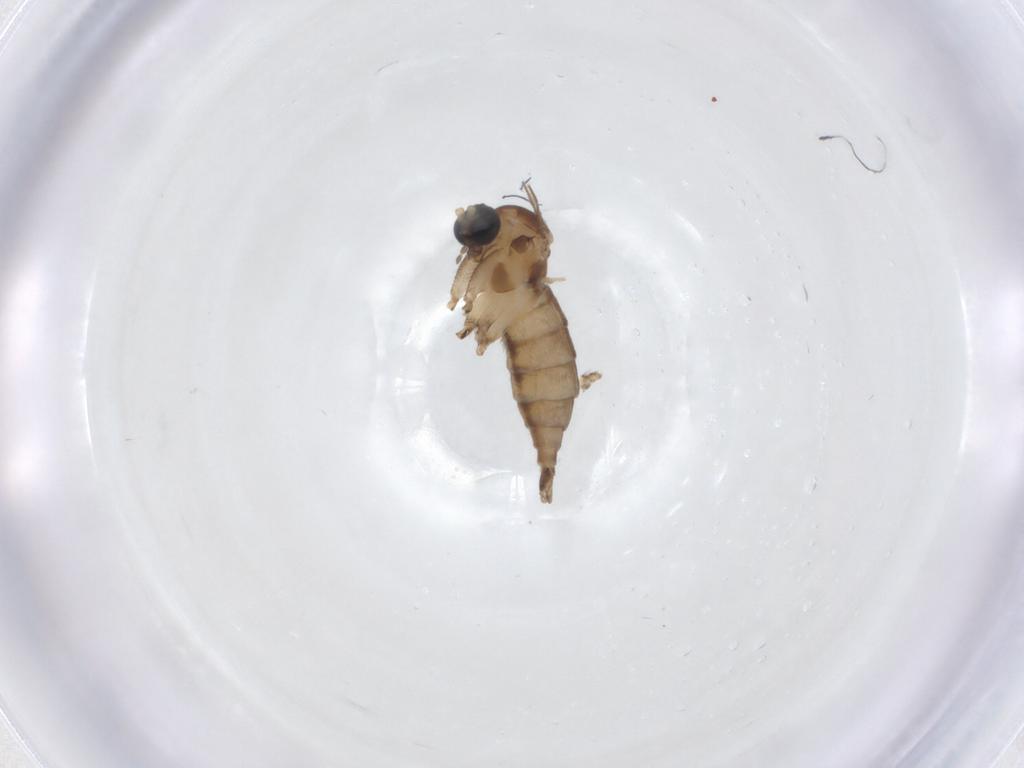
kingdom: Animalia
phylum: Arthropoda
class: Insecta
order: Diptera
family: Sciaridae
